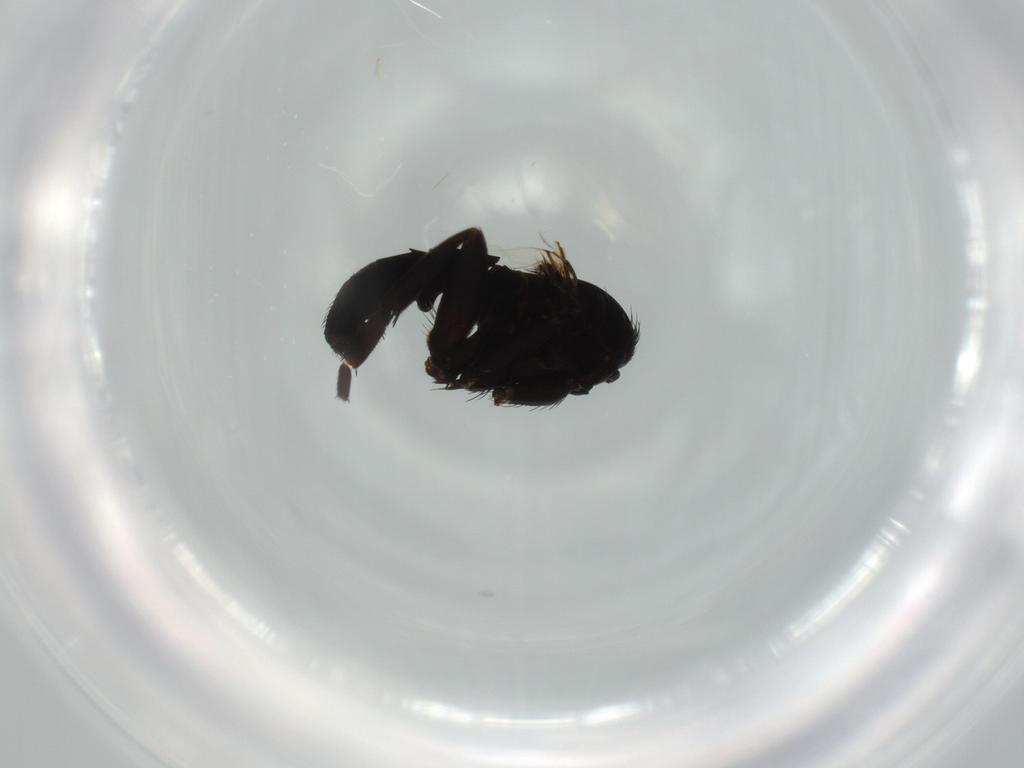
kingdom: Animalia
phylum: Arthropoda
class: Insecta
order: Diptera
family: Phoridae
